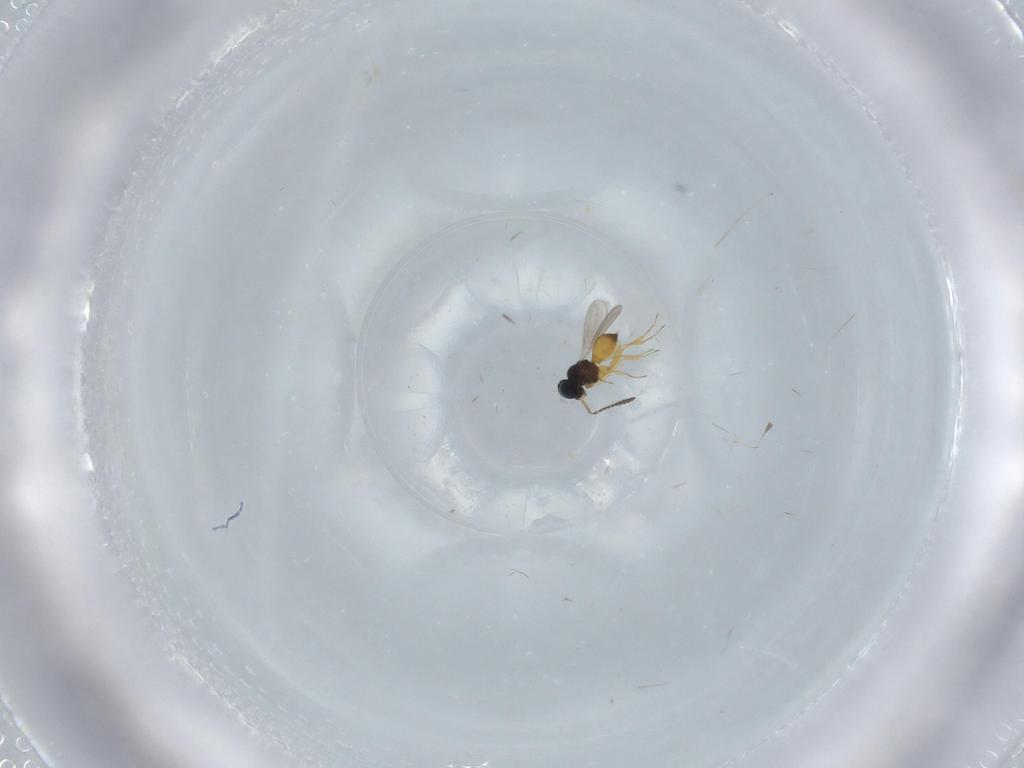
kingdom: Animalia
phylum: Arthropoda
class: Insecta
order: Hymenoptera
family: Scelionidae
